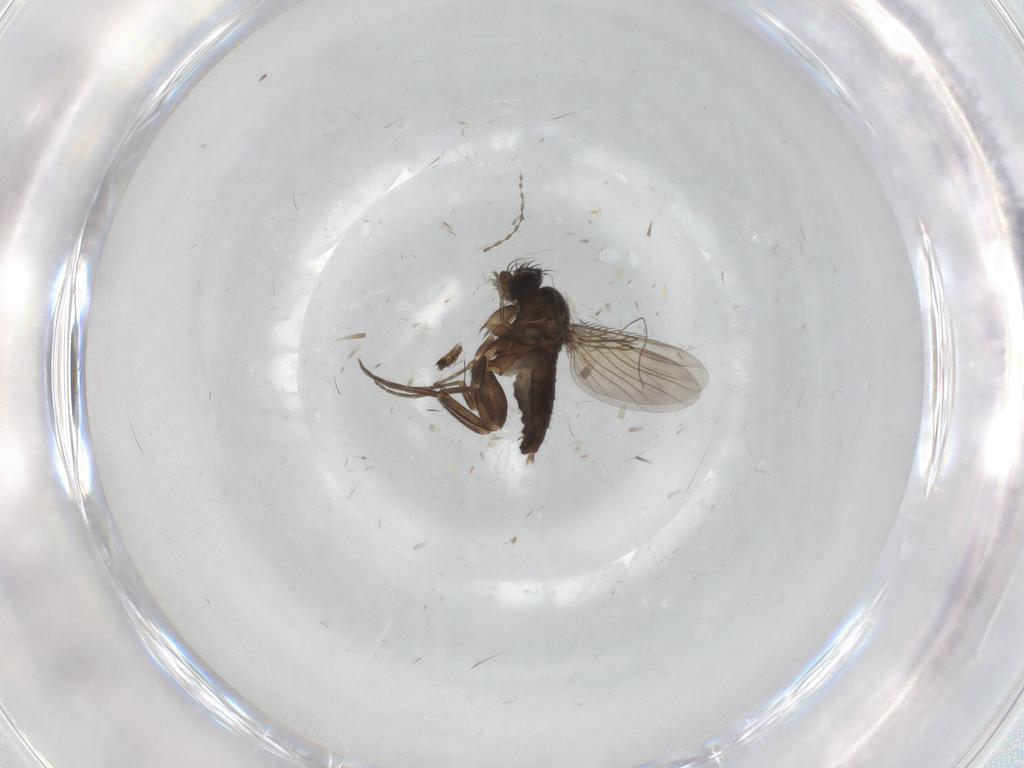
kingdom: Animalia
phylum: Arthropoda
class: Insecta
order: Diptera
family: Phoridae
